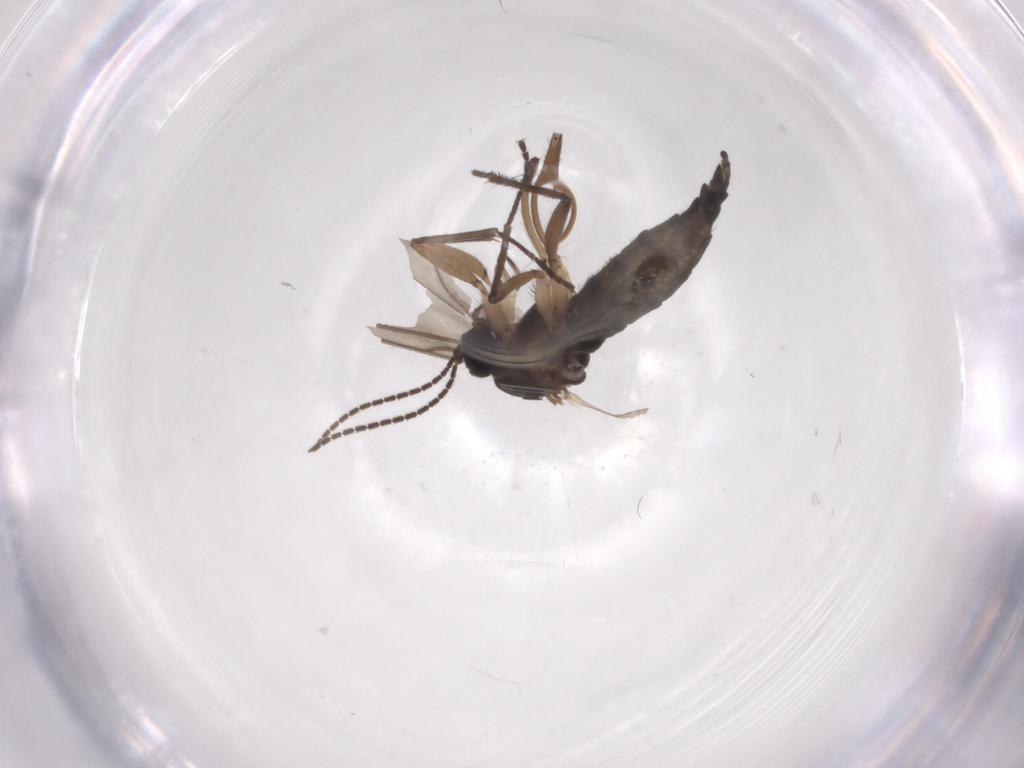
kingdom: Animalia
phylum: Arthropoda
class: Insecta
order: Diptera
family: Sciaridae
